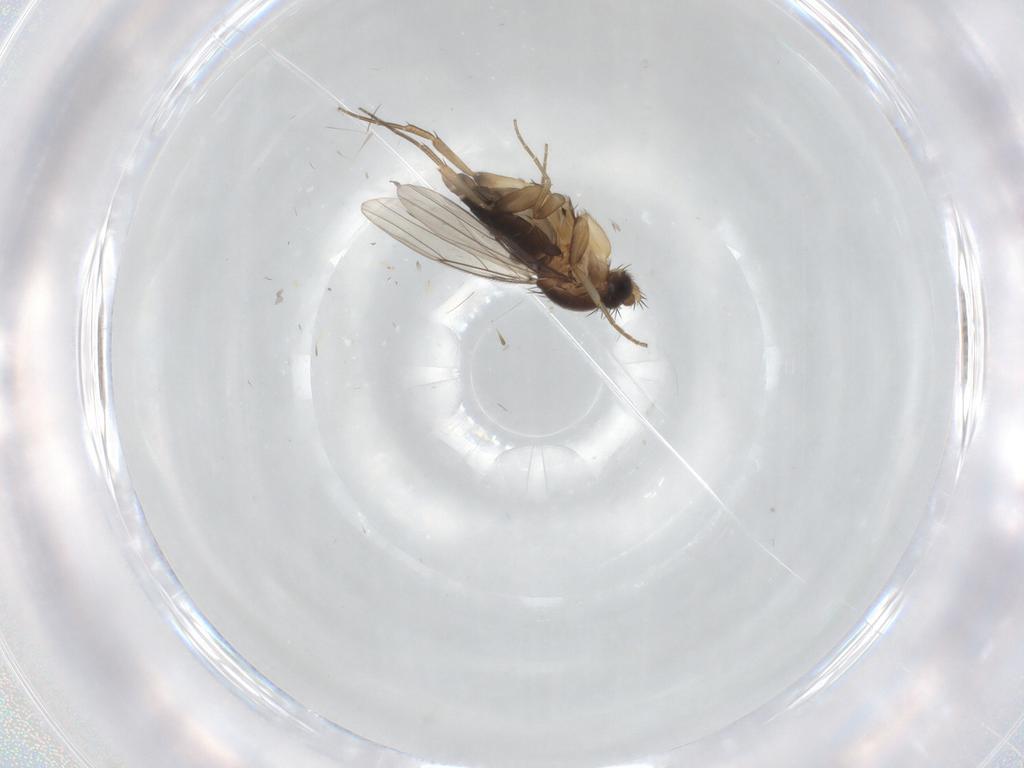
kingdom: Animalia
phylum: Arthropoda
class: Insecta
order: Diptera
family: Phoridae
